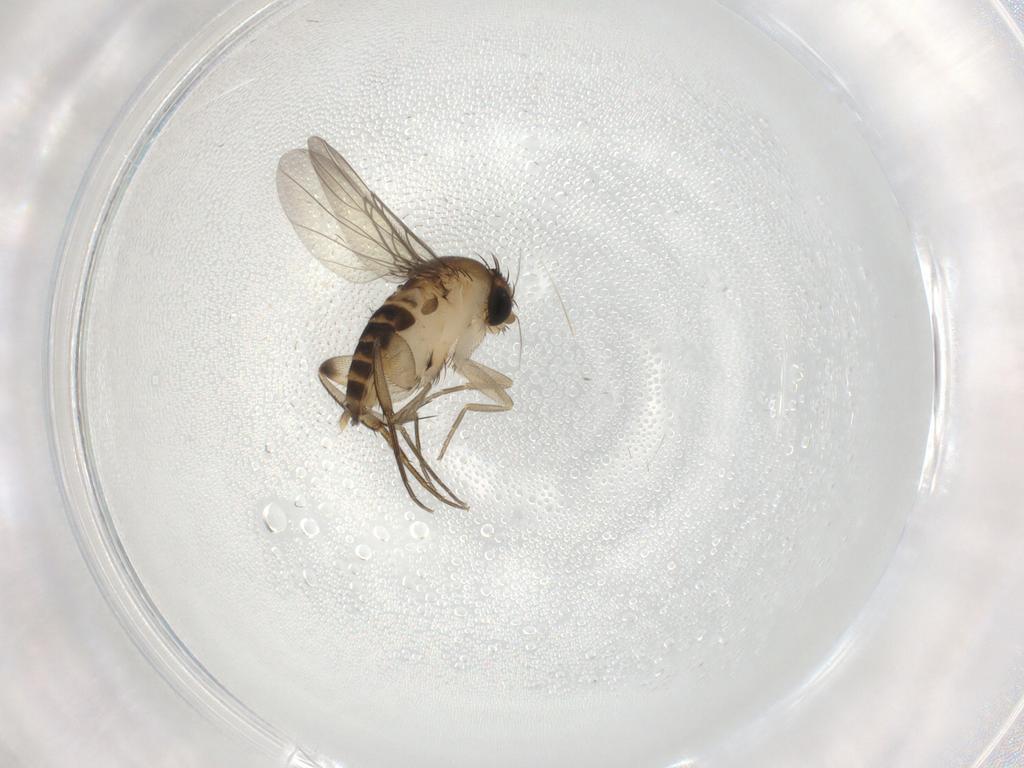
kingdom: Animalia
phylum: Arthropoda
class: Insecta
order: Diptera
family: Phoridae
